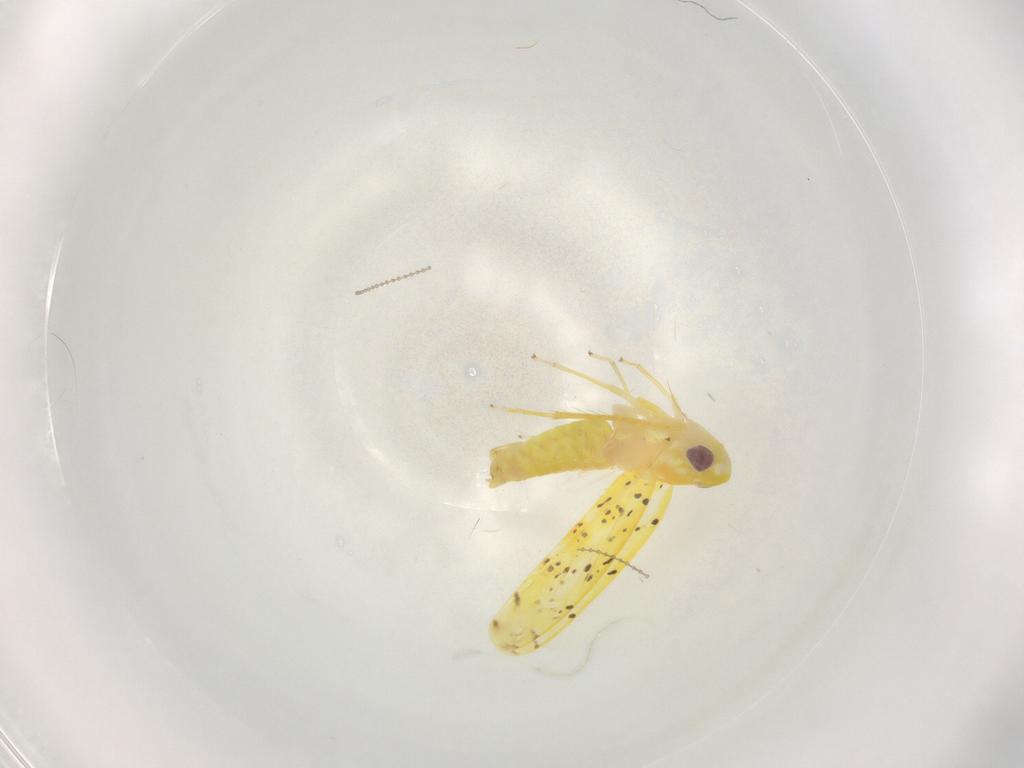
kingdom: Animalia
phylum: Arthropoda
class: Insecta
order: Hemiptera
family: Cicadellidae
